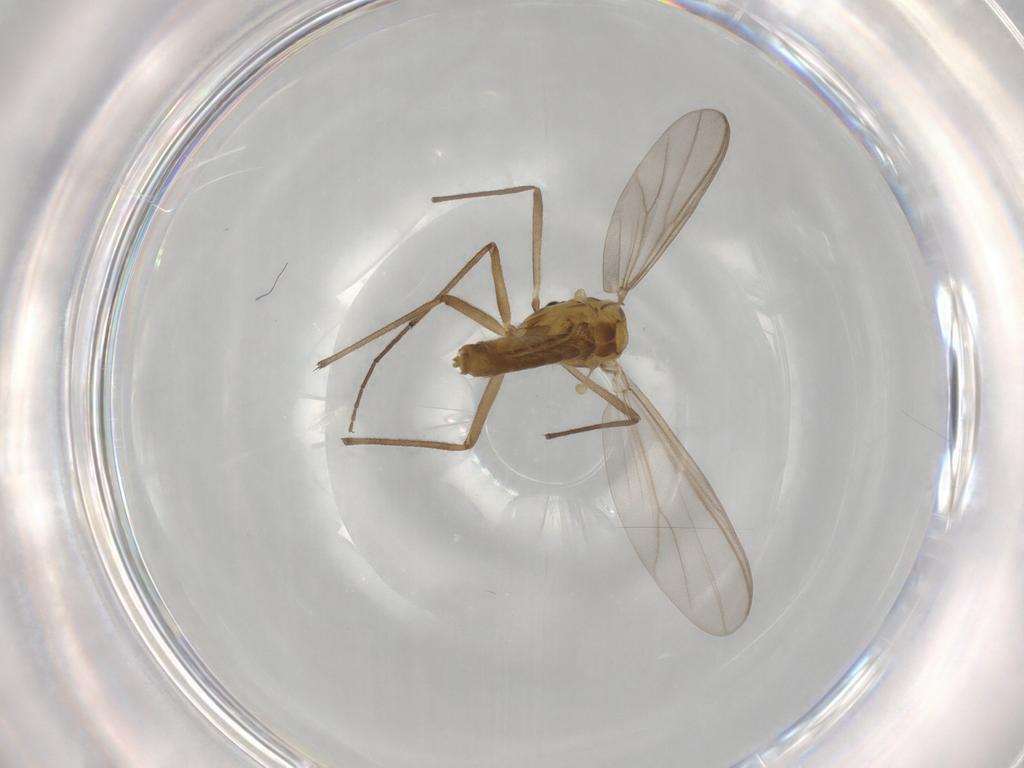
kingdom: Animalia
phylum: Arthropoda
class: Insecta
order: Diptera
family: Chironomidae
